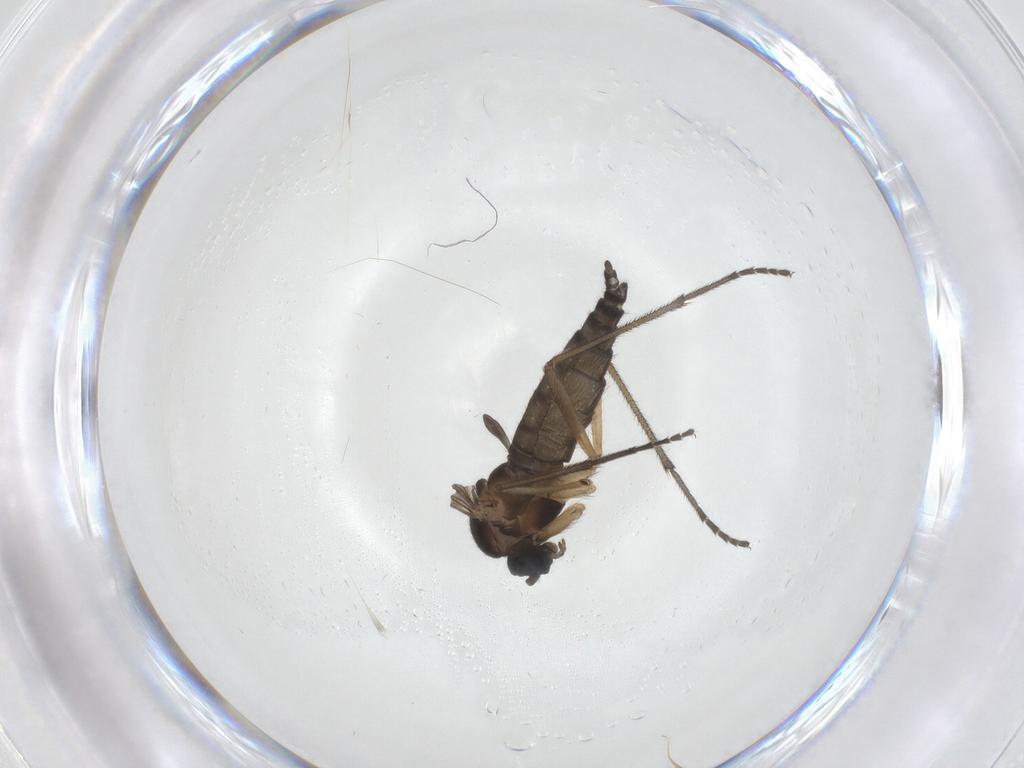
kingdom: Animalia
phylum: Arthropoda
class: Insecta
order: Diptera
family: Sciaridae
